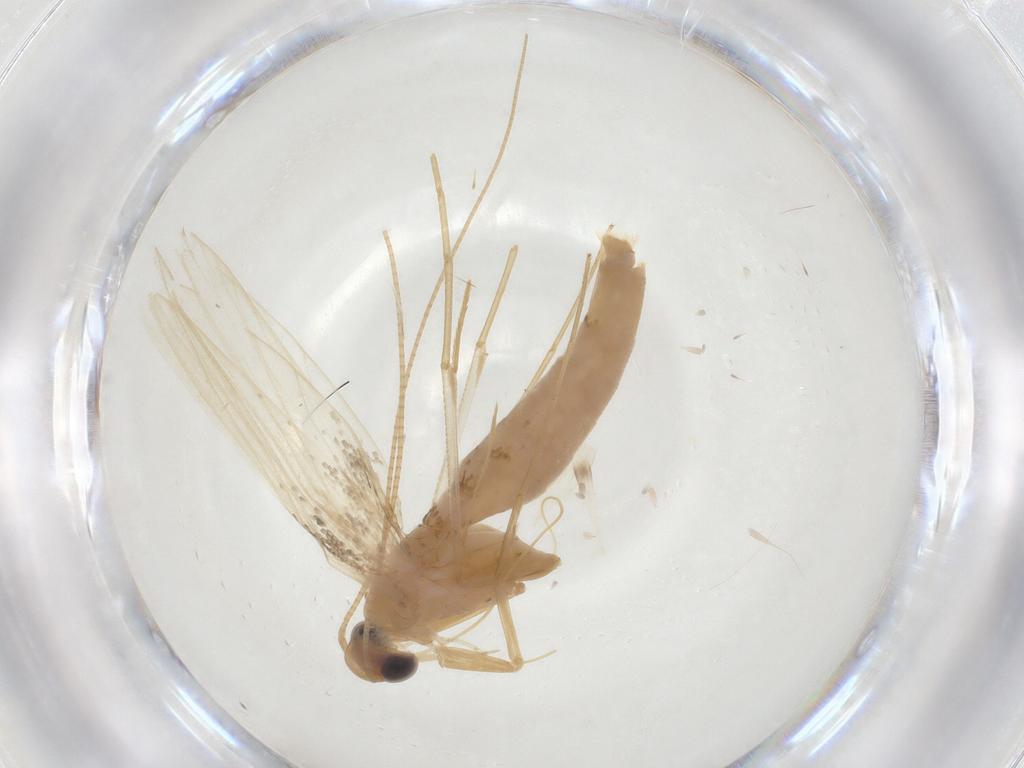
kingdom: Animalia
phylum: Arthropoda
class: Insecta
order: Lepidoptera
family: Tineidae
